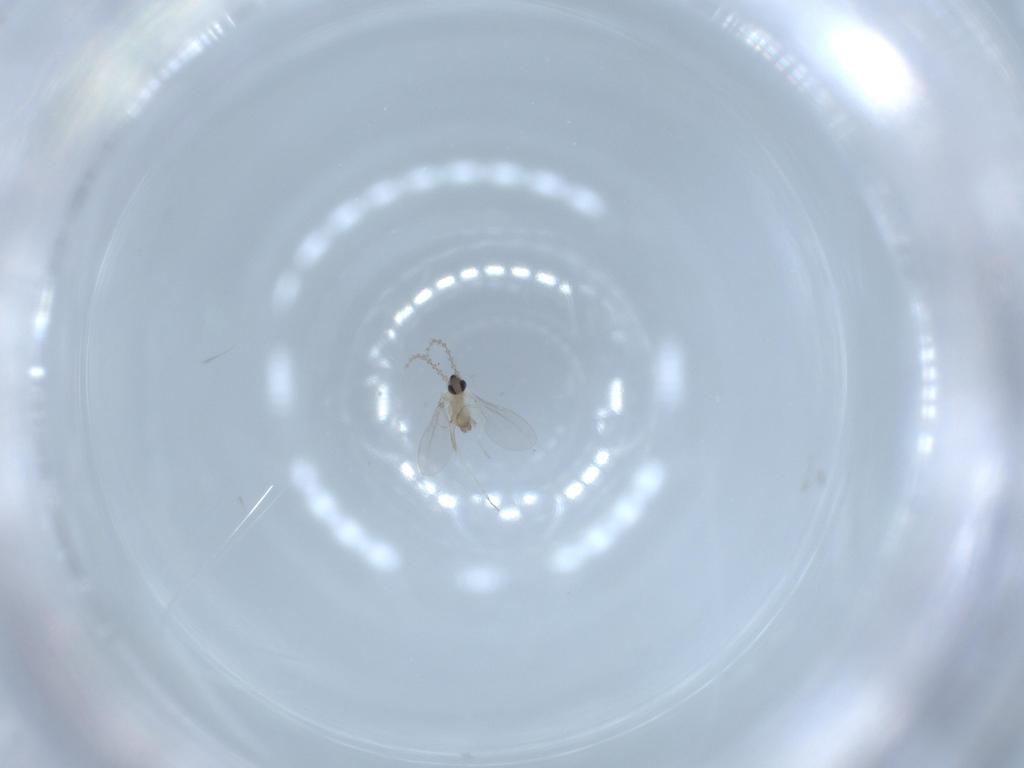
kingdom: Animalia
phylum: Arthropoda
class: Insecta
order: Diptera
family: Cecidomyiidae
